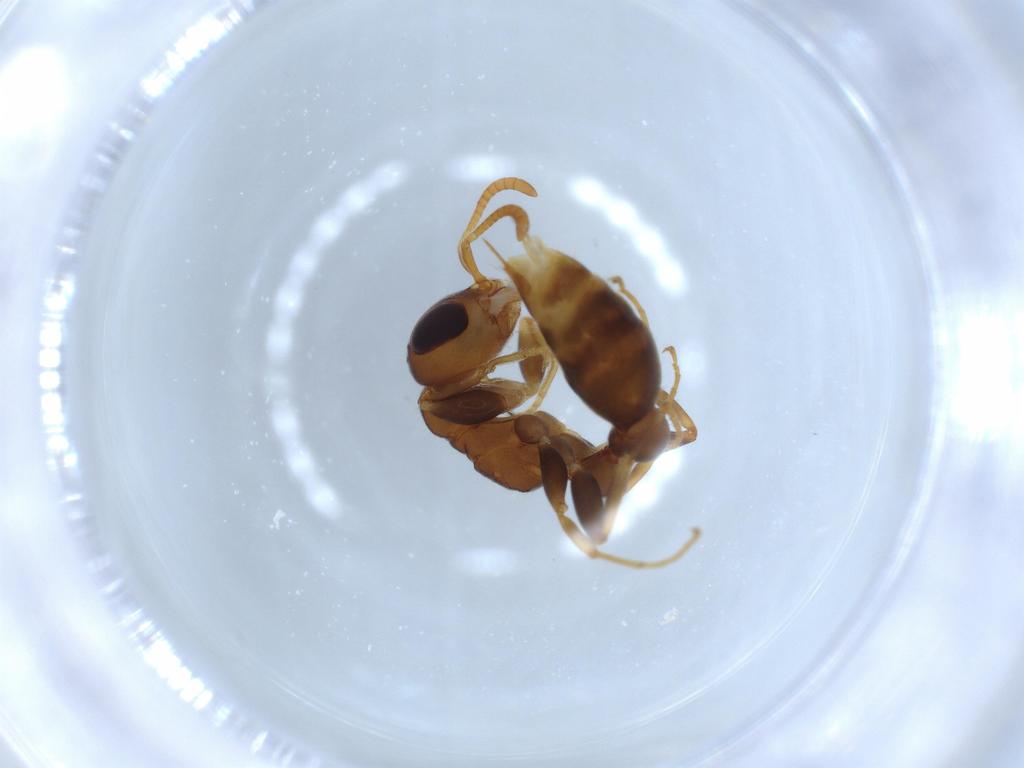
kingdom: Animalia
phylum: Arthropoda
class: Insecta
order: Hymenoptera
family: Formicidae
